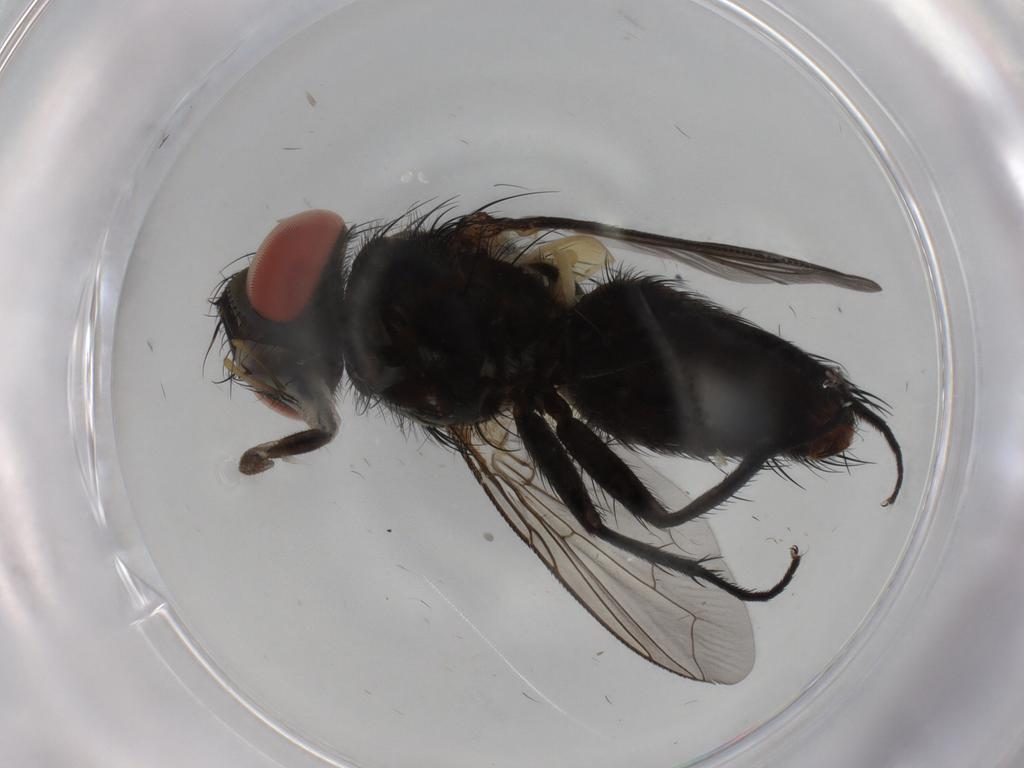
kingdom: Animalia
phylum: Arthropoda
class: Insecta
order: Diptera
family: Sarcophagidae
